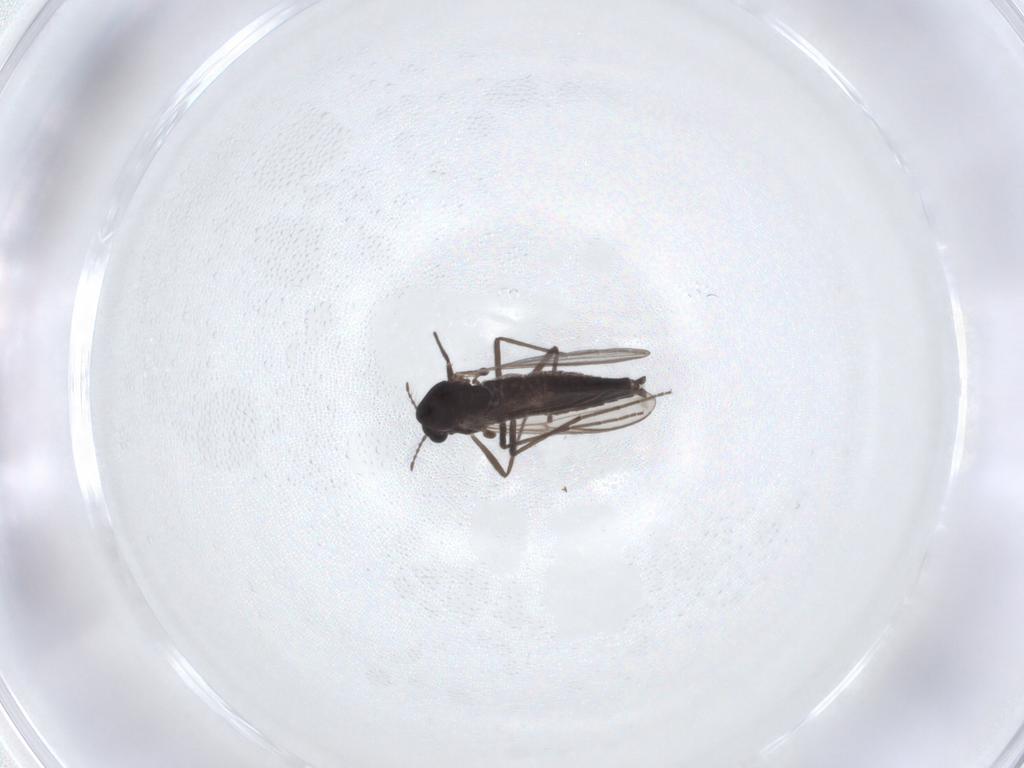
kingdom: Animalia
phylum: Arthropoda
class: Insecta
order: Diptera
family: Chironomidae
